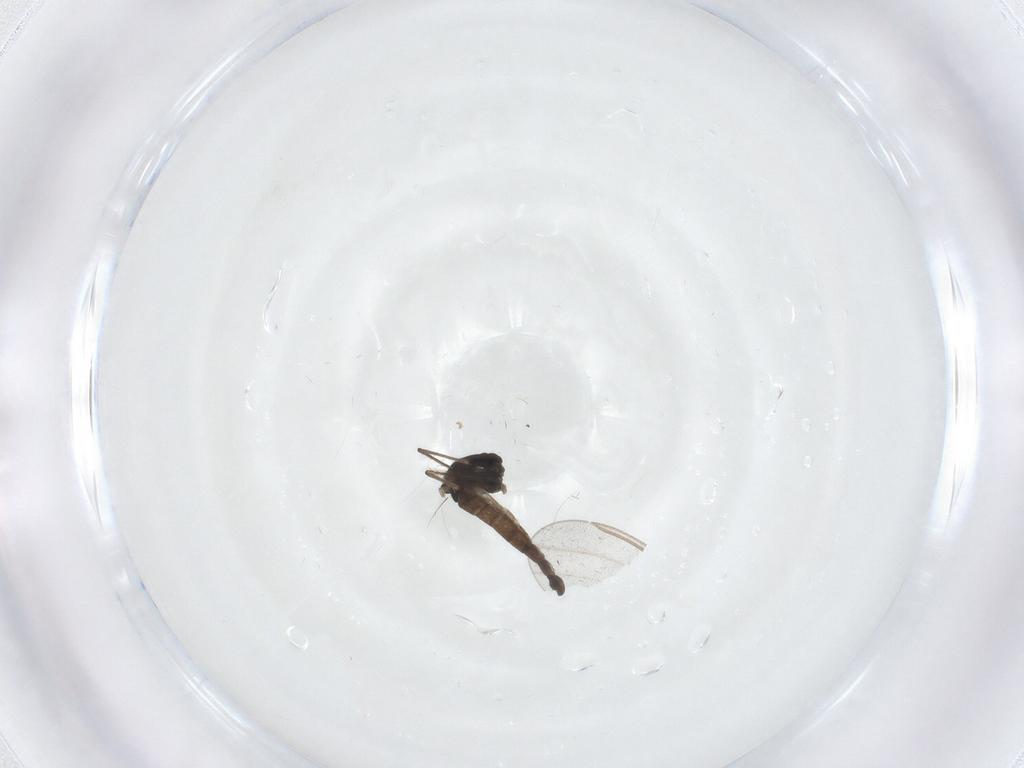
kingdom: Animalia
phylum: Arthropoda
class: Insecta
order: Diptera
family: Chironomidae
